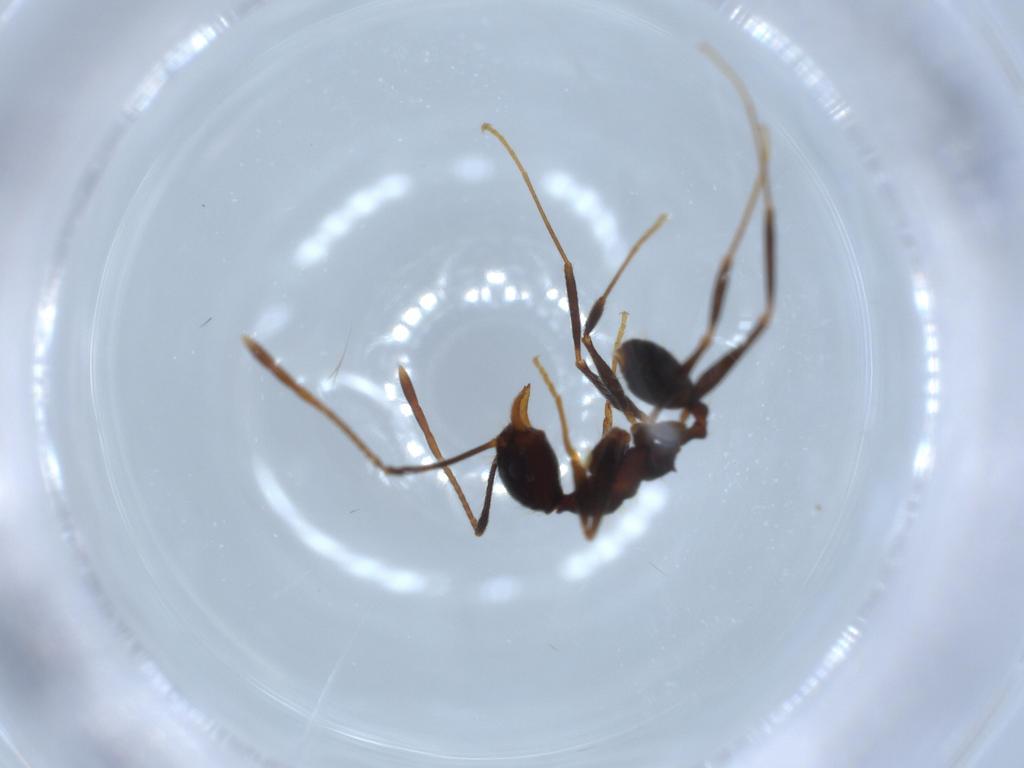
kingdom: Animalia
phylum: Arthropoda
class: Insecta
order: Hymenoptera
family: Formicidae
